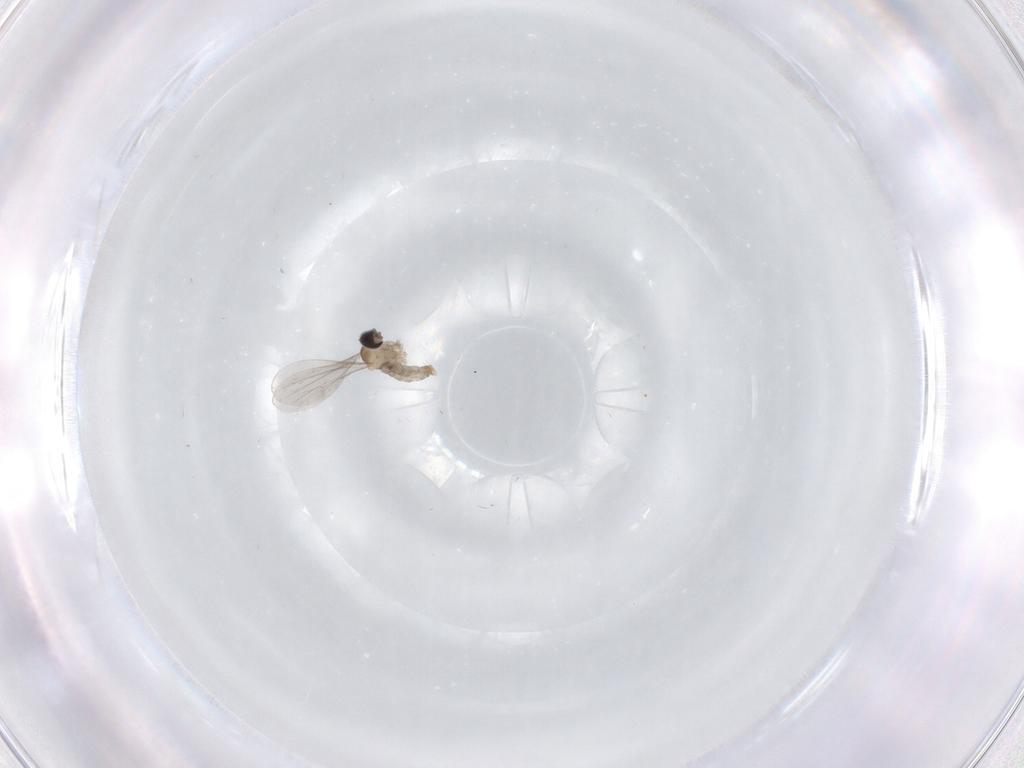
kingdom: Animalia
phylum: Arthropoda
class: Insecta
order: Diptera
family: Cecidomyiidae
